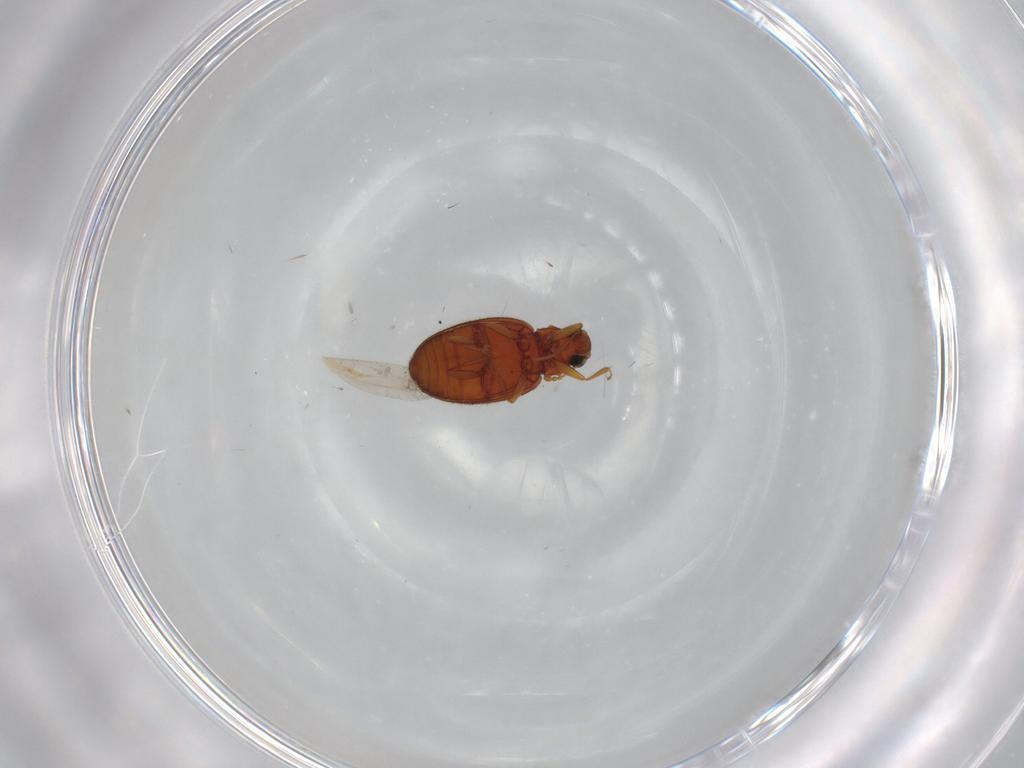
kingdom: Animalia
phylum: Arthropoda
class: Insecta
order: Coleoptera
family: Latridiidae
